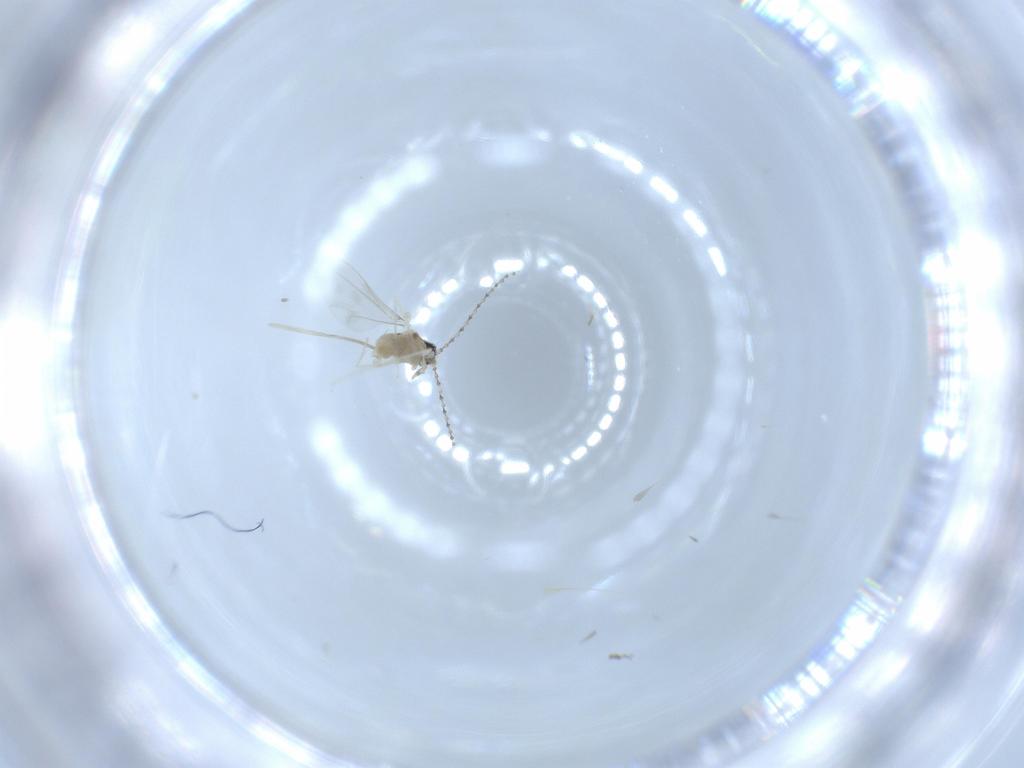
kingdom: Animalia
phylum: Arthropoda
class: Insecta
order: Diptera
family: Cecidomyiidae
